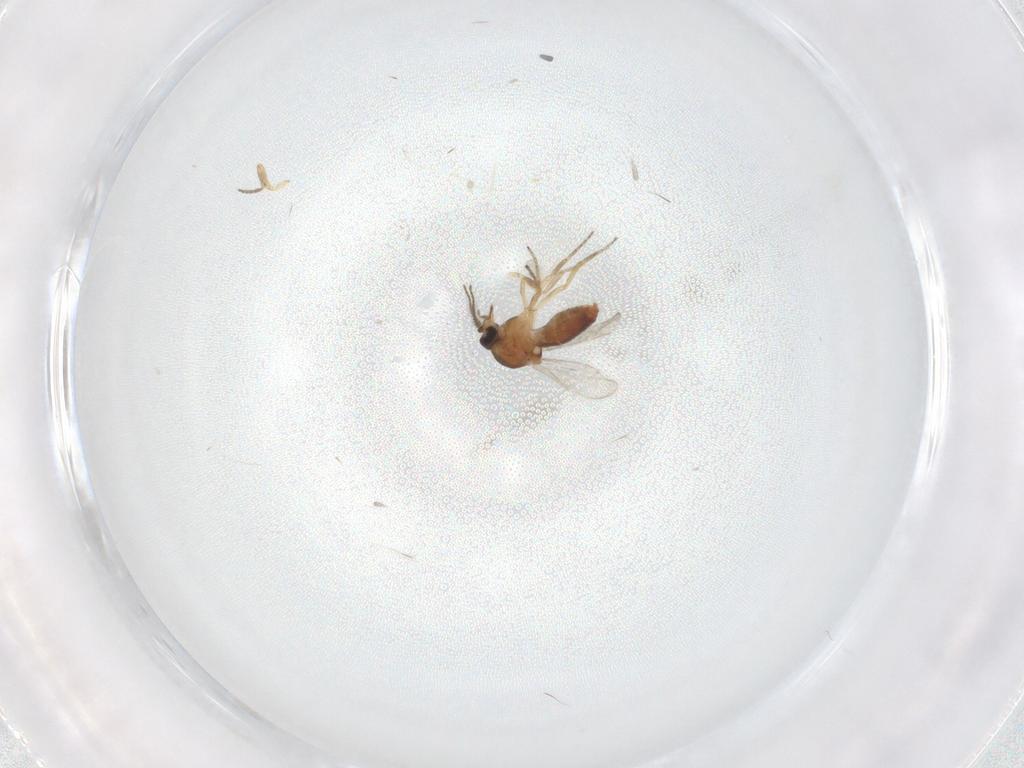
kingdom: Animalia
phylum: Arthropoda
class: Insecta
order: Diptera
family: Ceratopogonidae
